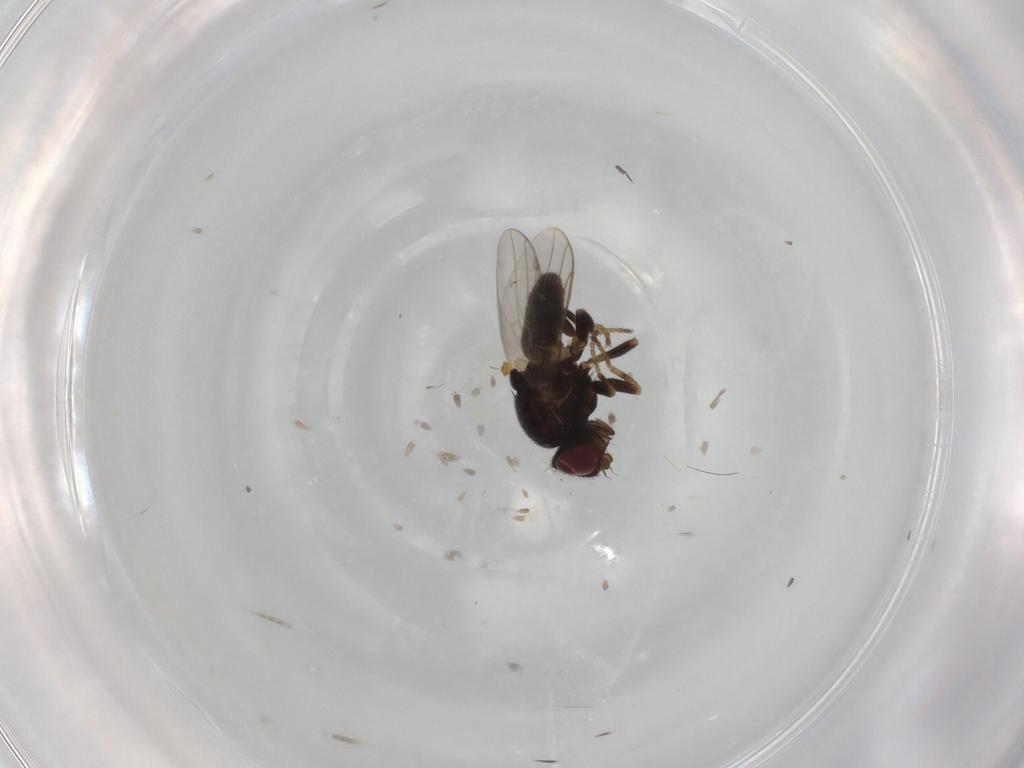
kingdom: Animalia
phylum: Arthropoda
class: Insecta
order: Diptera
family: Chloropidae
